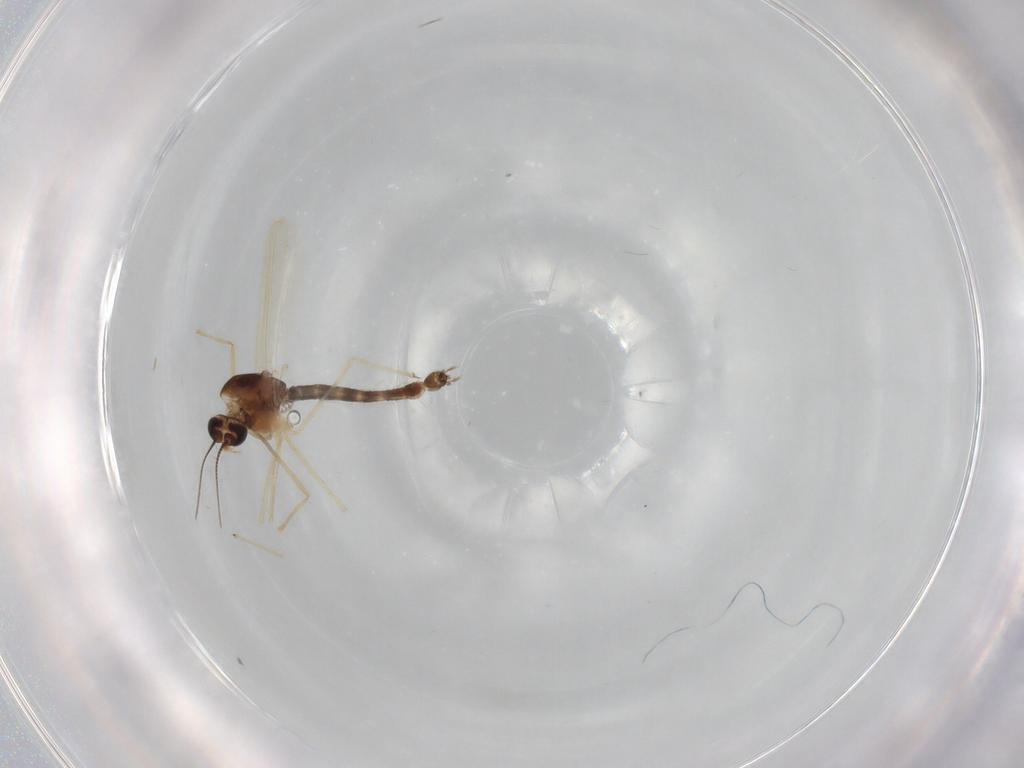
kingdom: Animalia
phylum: Arthropoda
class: Insecta
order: Diptera
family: Chironomidae
